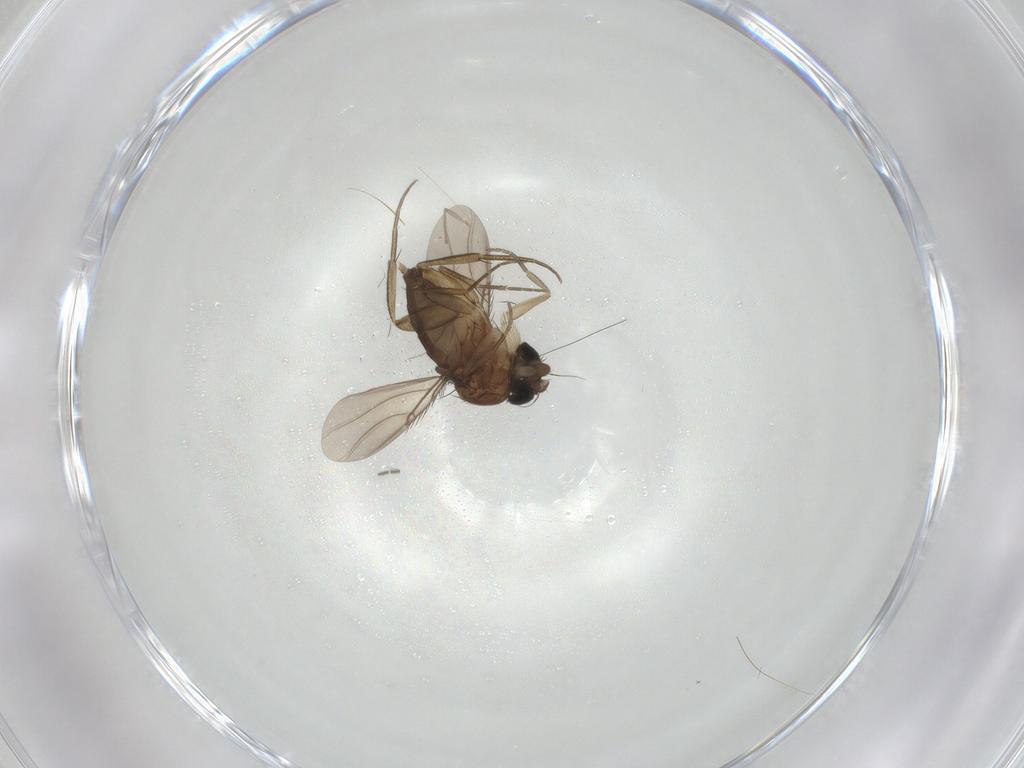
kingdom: Animalia
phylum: Arthropoda
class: Insecta
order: Diptera
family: Phoridae
